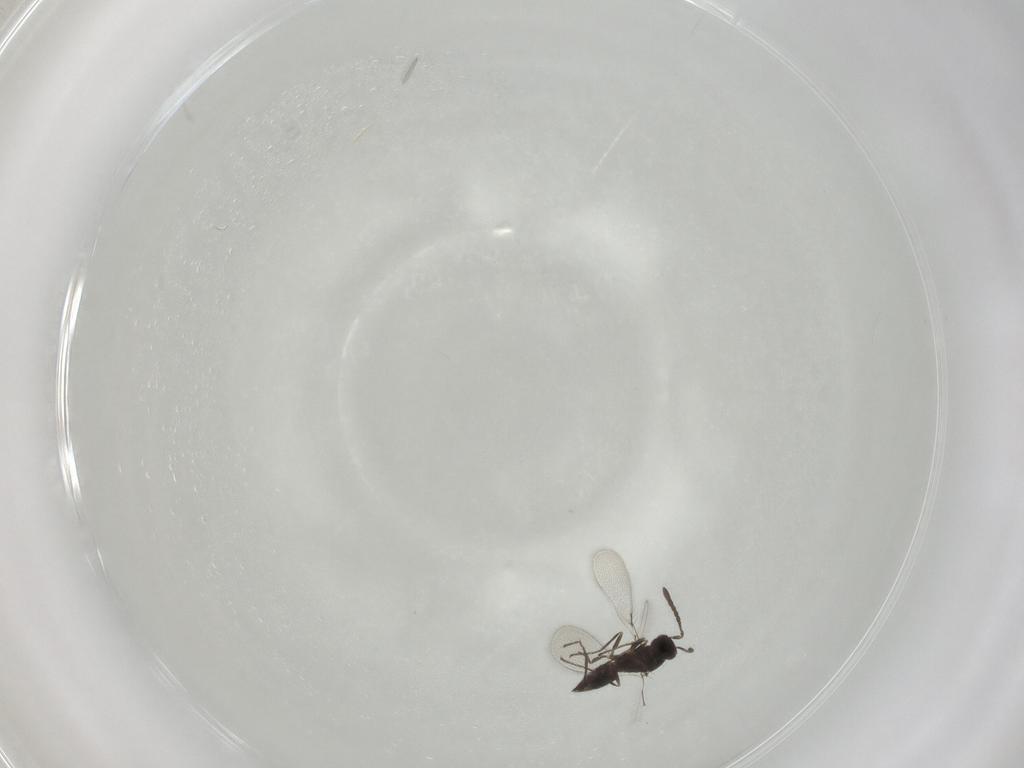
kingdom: Animalia
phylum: Arthropoda
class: Insecta
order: Hymenoptera
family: Mymaridae
